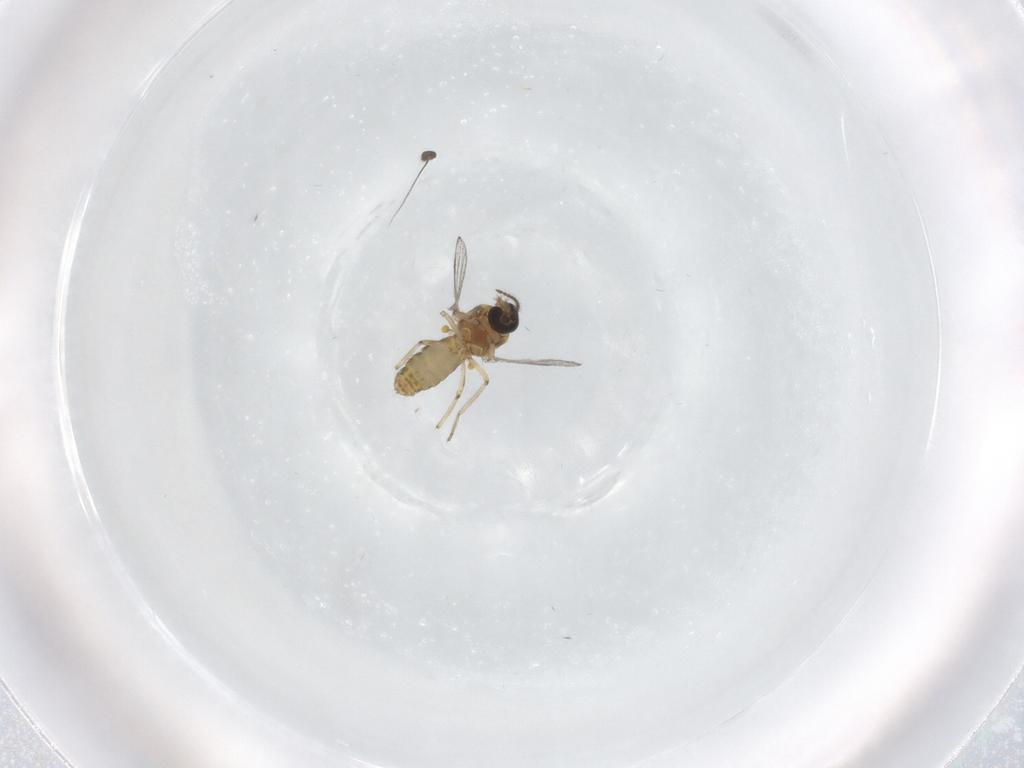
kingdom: Animalia
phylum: Arthropoda
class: Insecta
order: Diptera
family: Ceratopogonidae
